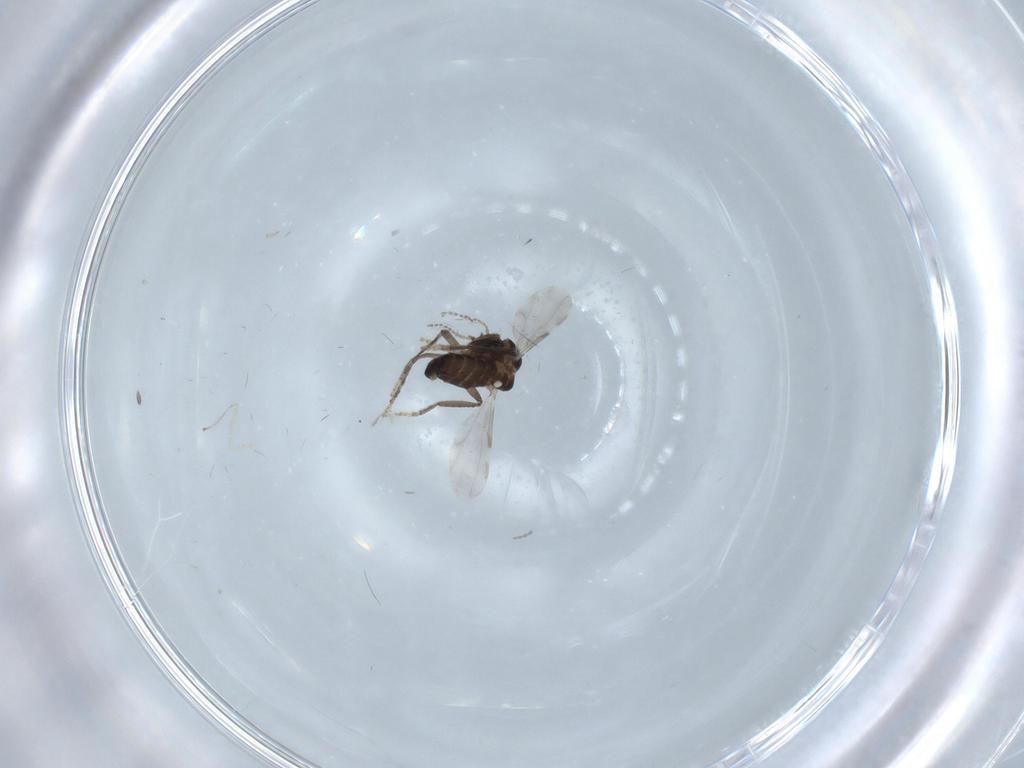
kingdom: Animalia
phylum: Arthropoda
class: Insecta
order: Diptera
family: Ceratopogonidae
